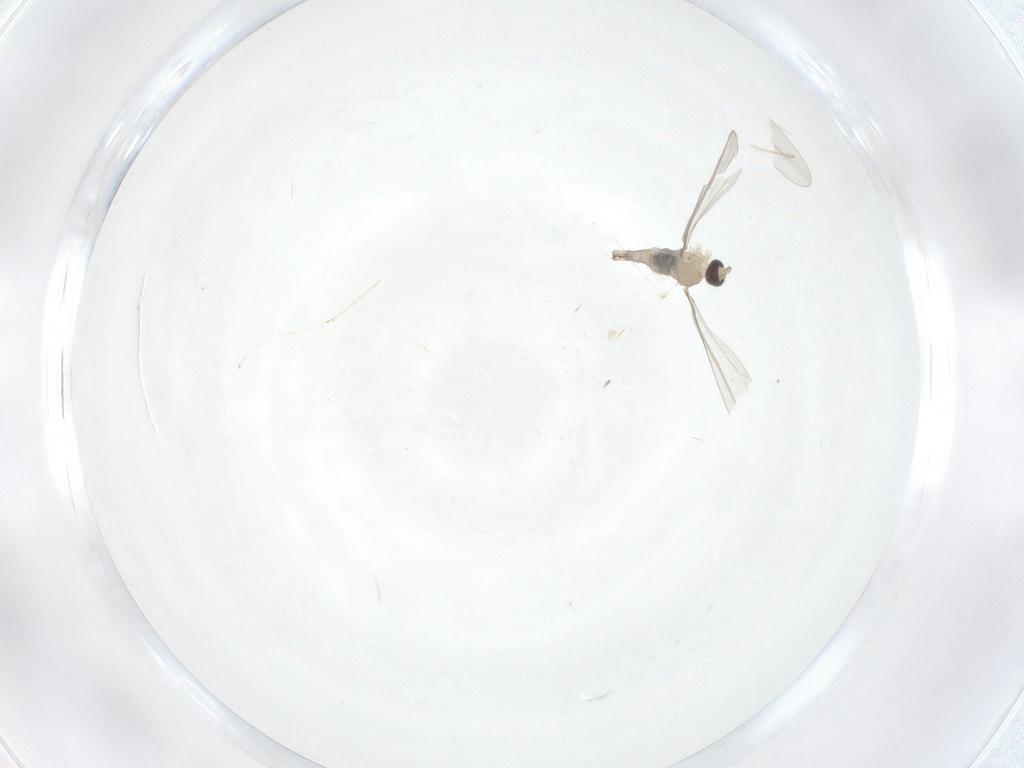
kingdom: Animalia
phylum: Arthropoda
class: Insecta
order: Diptera
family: Cecidomyiidae
